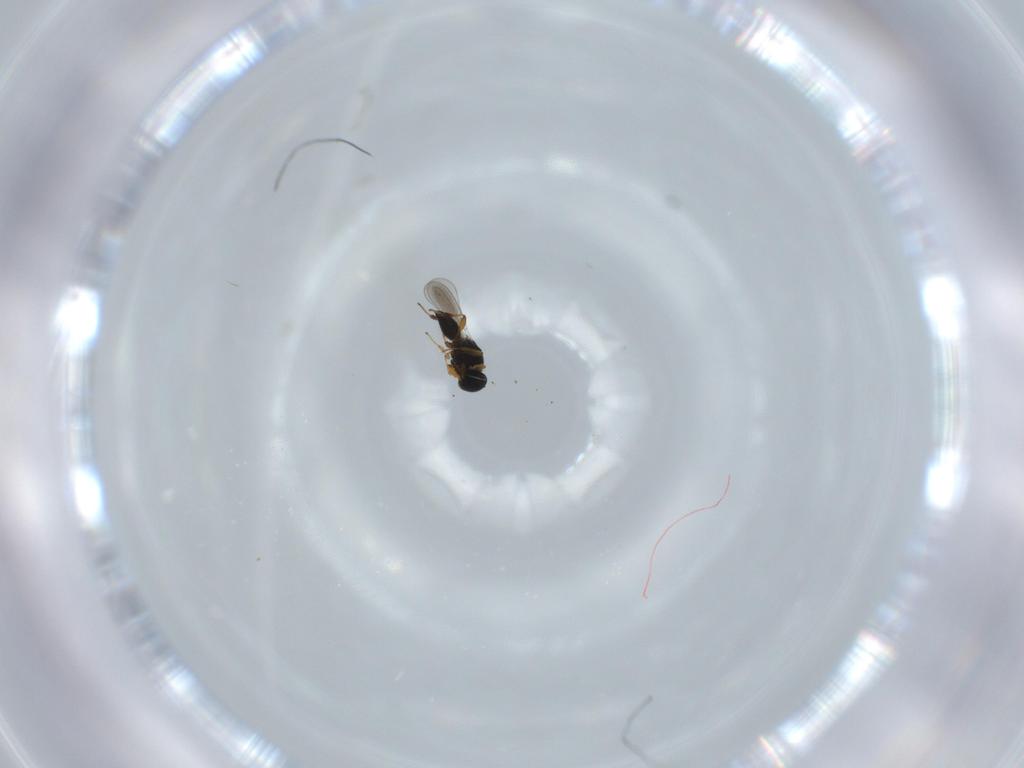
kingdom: Animalia
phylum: Arthropoda
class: Insecta
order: Hymenoptera
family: Platygastridae
